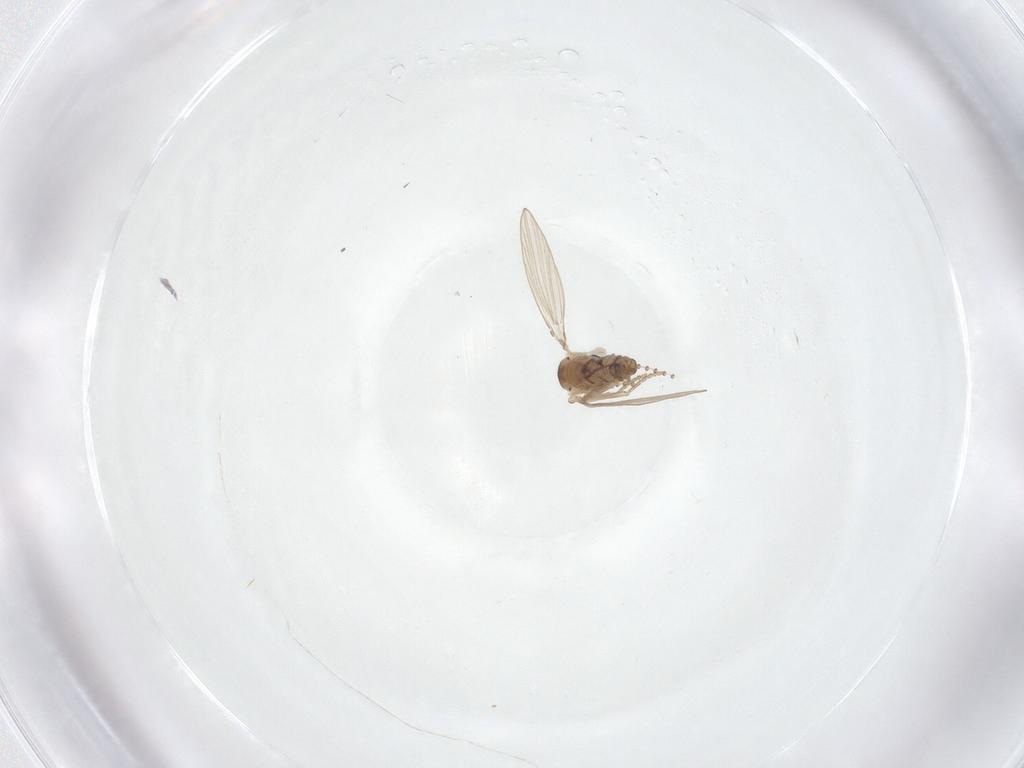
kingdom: Animalia
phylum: Arthropoda
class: Insecta
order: Diptera
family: Psychodidae
